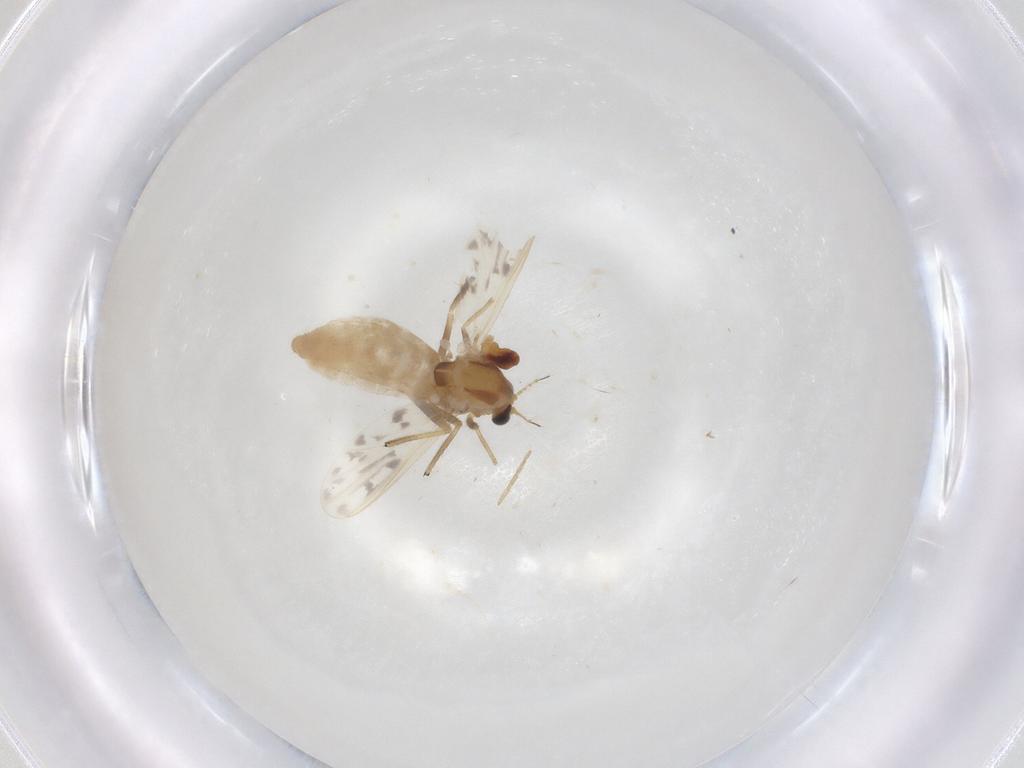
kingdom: Animalia
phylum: Arthropoda
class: Insecta
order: Diptera
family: Chironomidae
